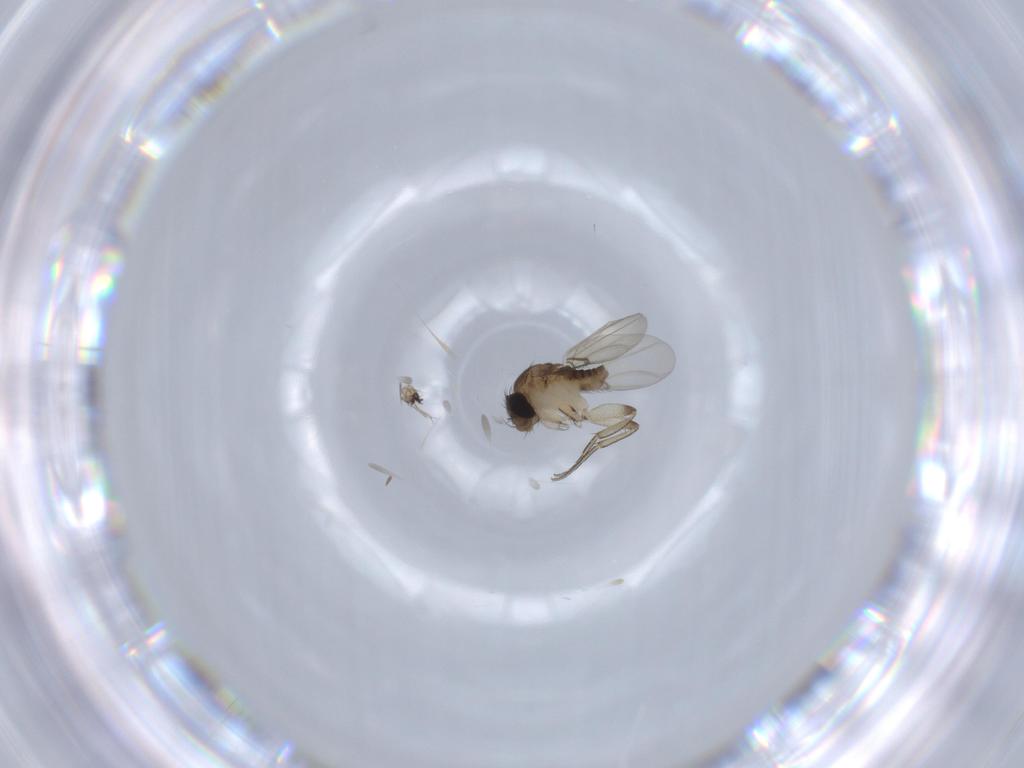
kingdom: Animalia
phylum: Arthropoda
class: Insecta
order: Diptera
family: Phoridae
